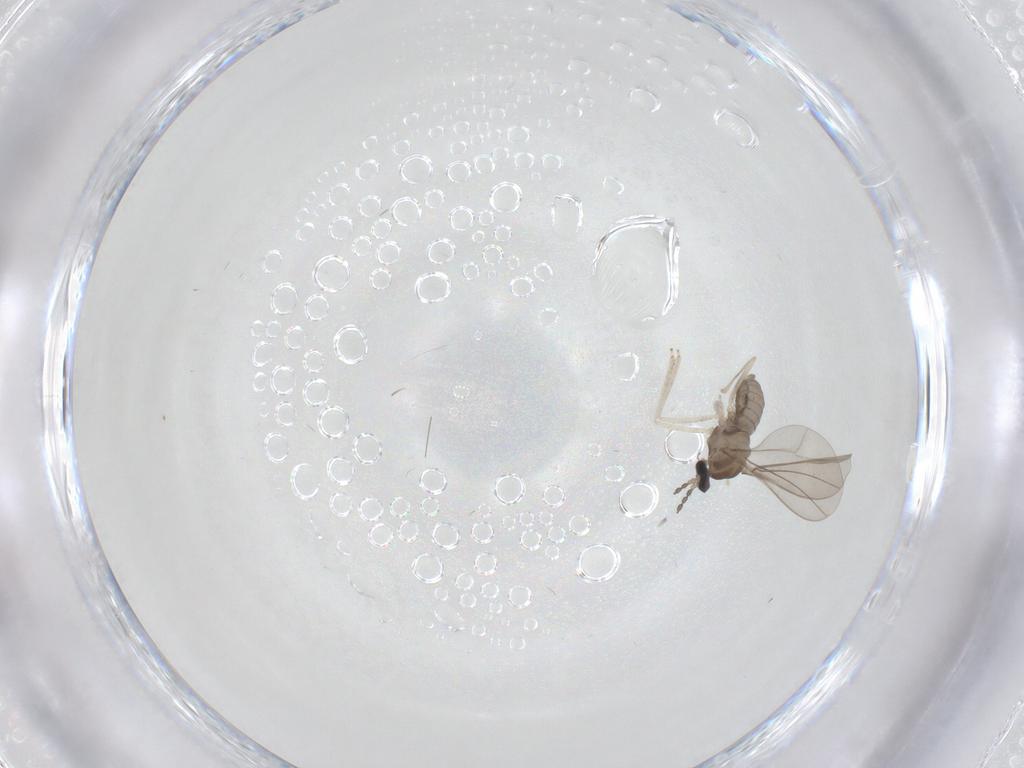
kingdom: Animalia
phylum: Arthropoda
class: Insecta
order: Diptera
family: Cecidomyiidae
